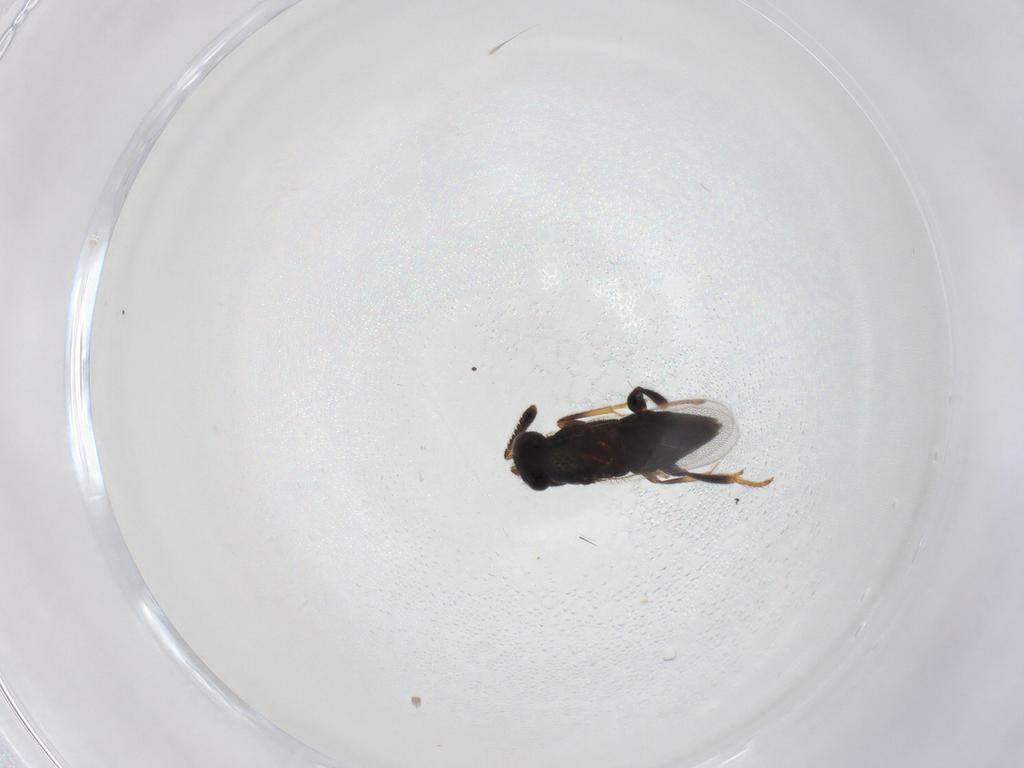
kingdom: Animalia
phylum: Arthropoda
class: Insecta
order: Hymenoptera
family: Encyrtidae
